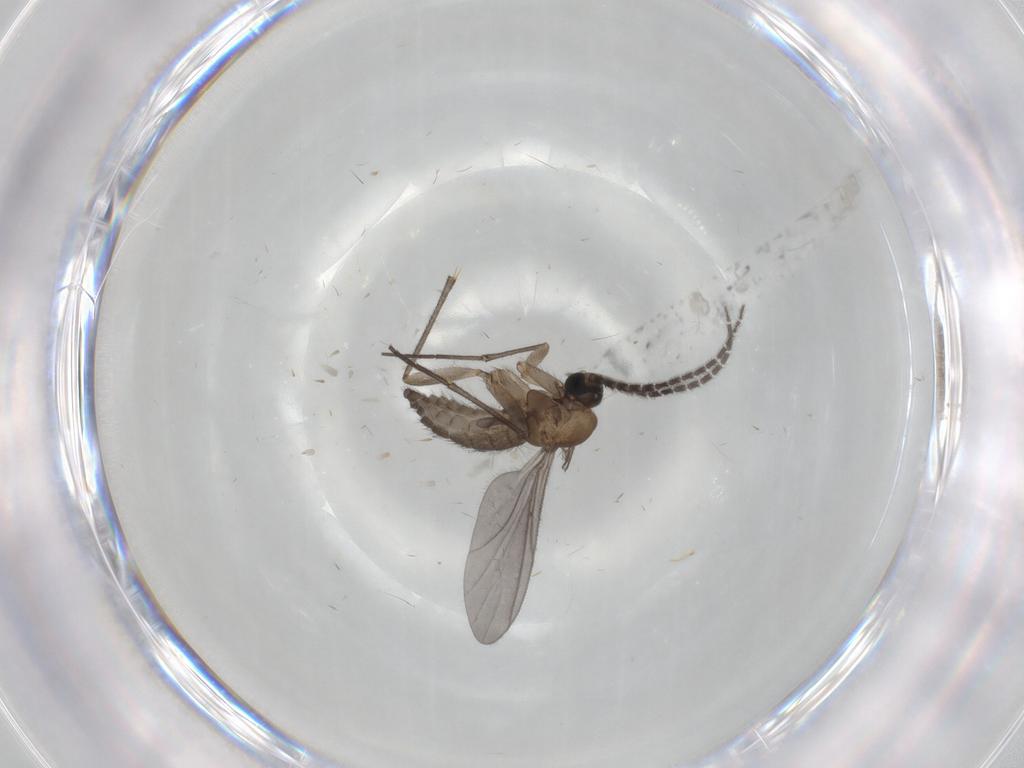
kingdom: Animalia
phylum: Arthropoda
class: Insecta
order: Diptera
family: Sciaridae
